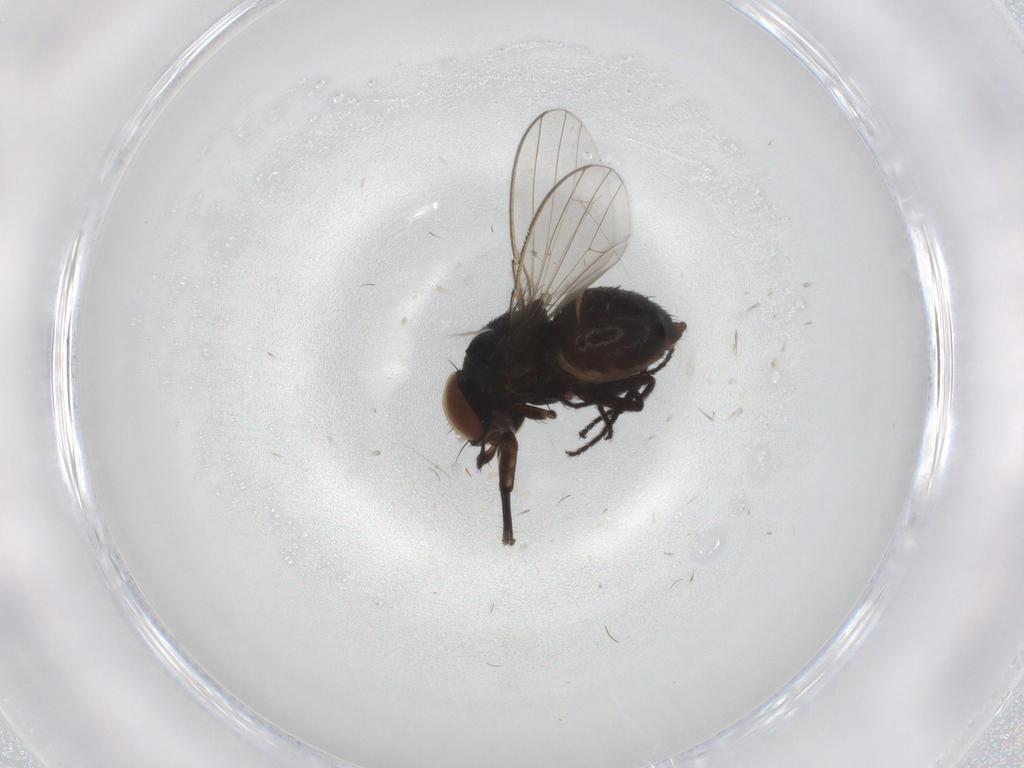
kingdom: Animalia
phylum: Arthropoda
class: Insecta
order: Diptera
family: Milichiidae
